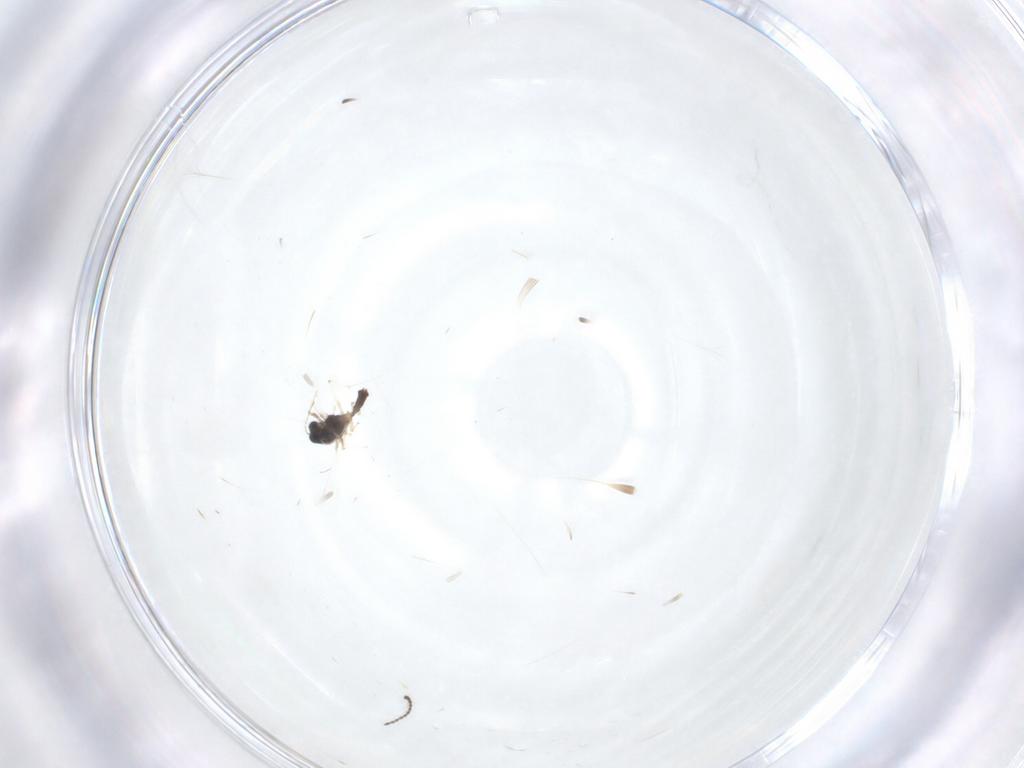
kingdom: Animalia
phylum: Arthropoda
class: Insecta
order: Diptera
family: Chironomidae
